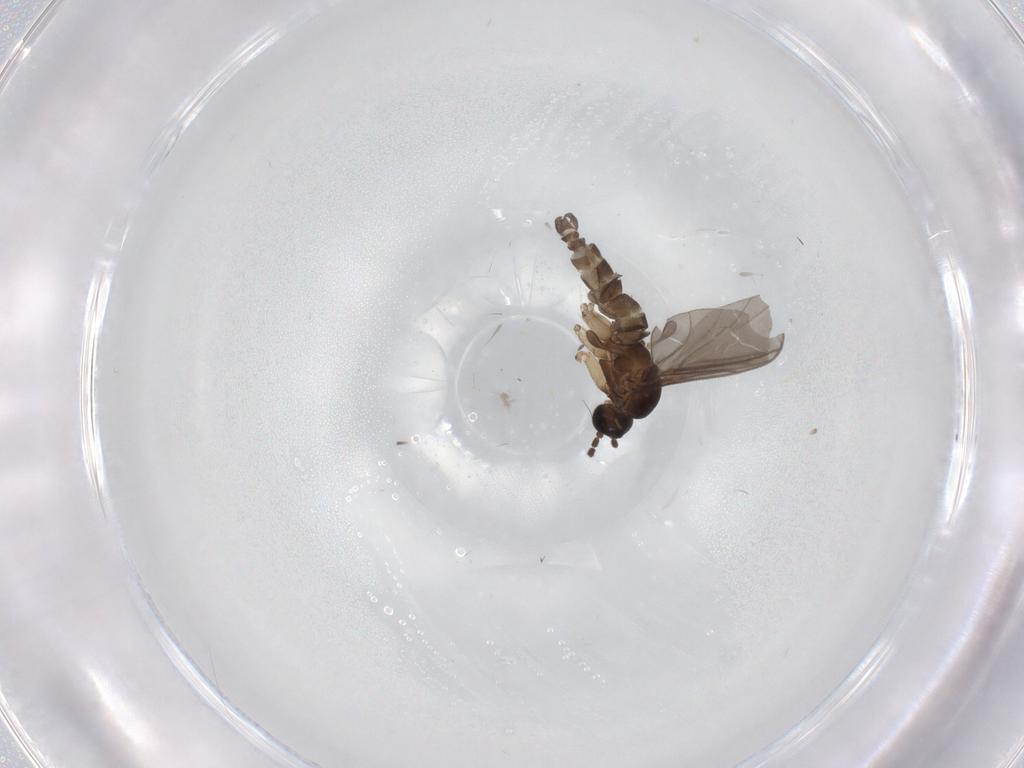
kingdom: Animalia
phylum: Arthropoda
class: Insecta
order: Diptera
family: Sciaridae
